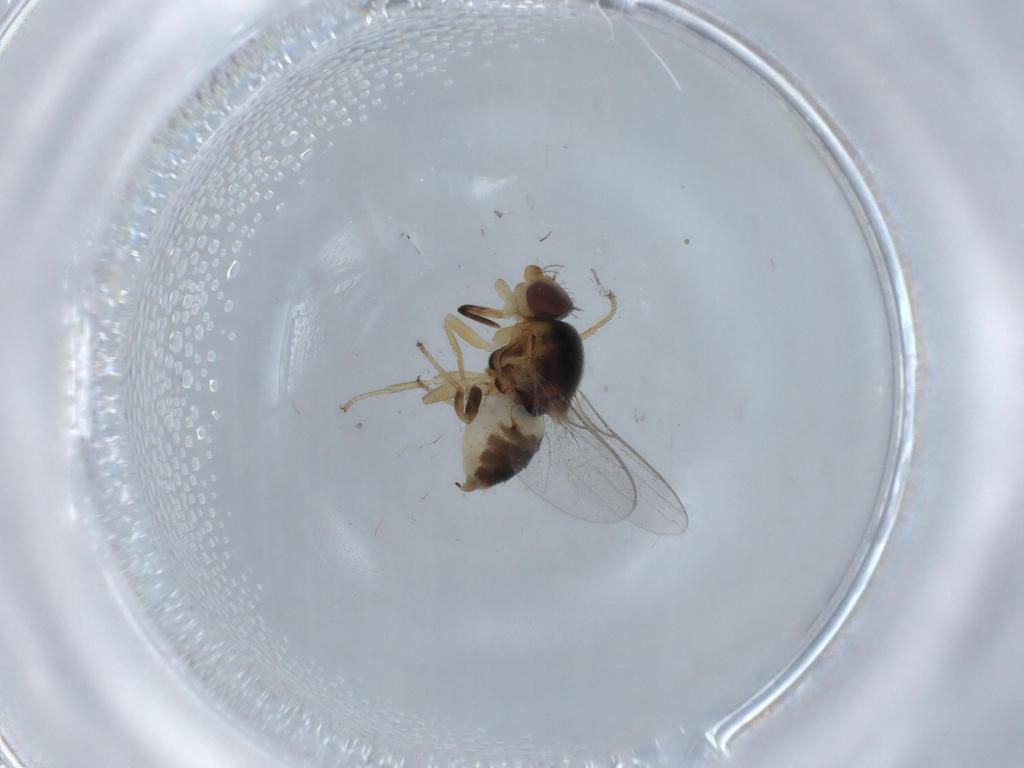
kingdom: Animalia
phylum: Arthropoda
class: Insecta
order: Diptera
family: Chloropidae
